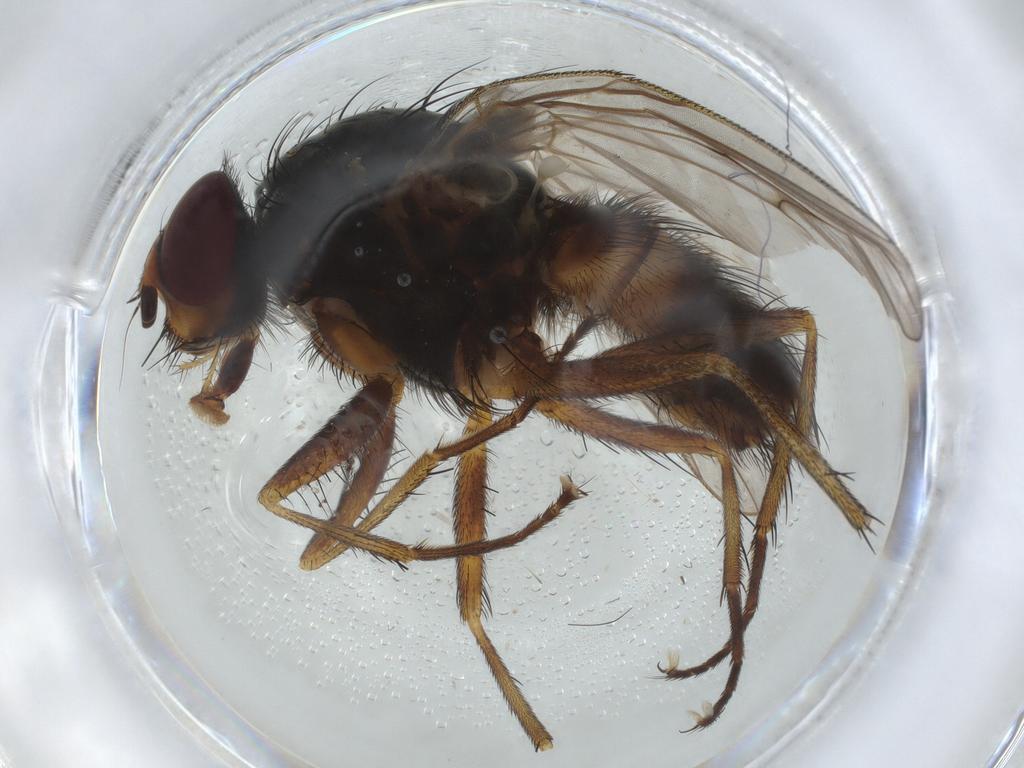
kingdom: Animalia
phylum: Arthropoda
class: Insecta
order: Diptera
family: Anthomyiidae
